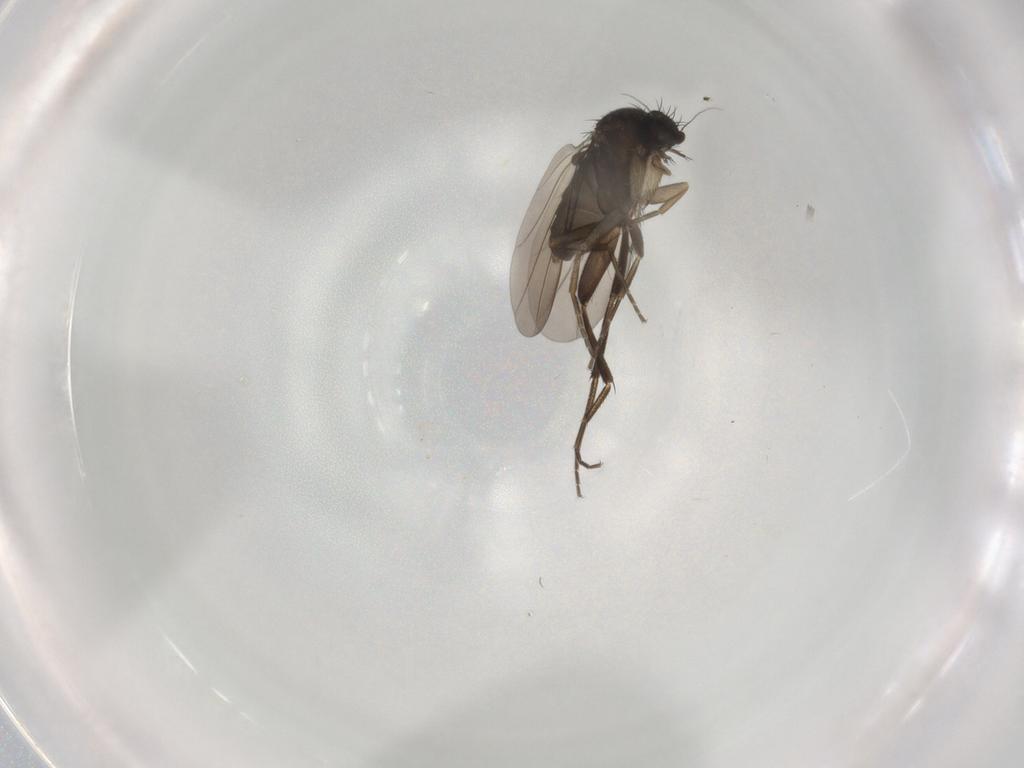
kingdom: Animalia
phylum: Arthropoda
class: Insecta
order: Diptera
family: Phoridae
